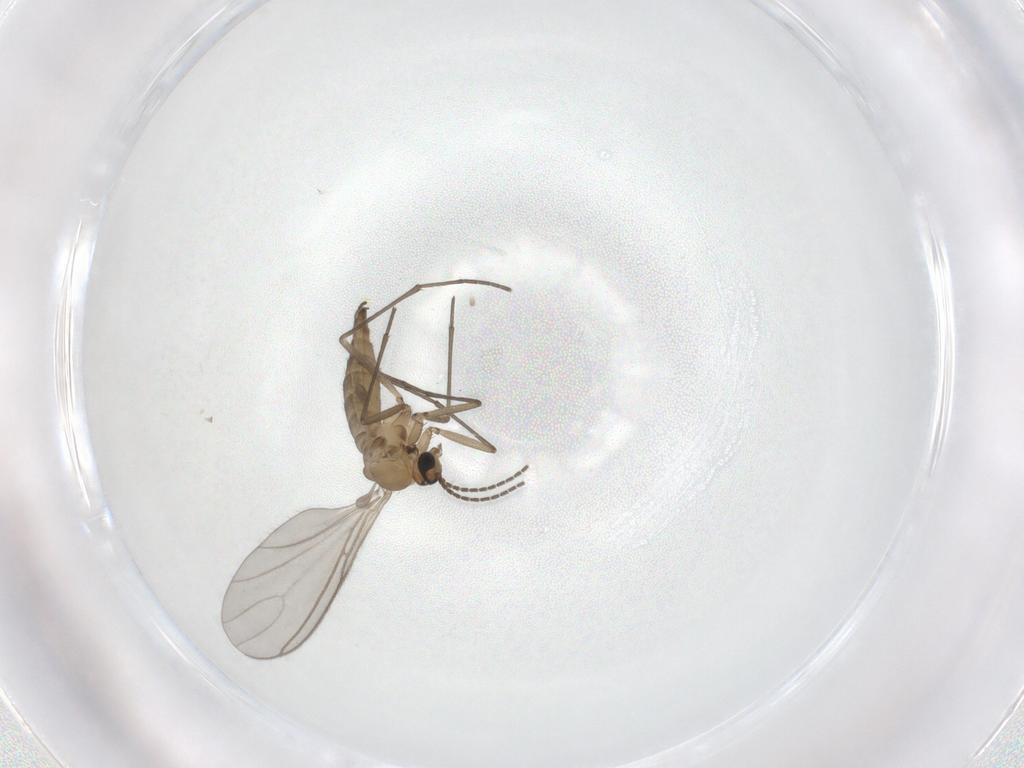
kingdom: Animalia
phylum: Arthropoda
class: Insecta
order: Diptera
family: Sciaridae
